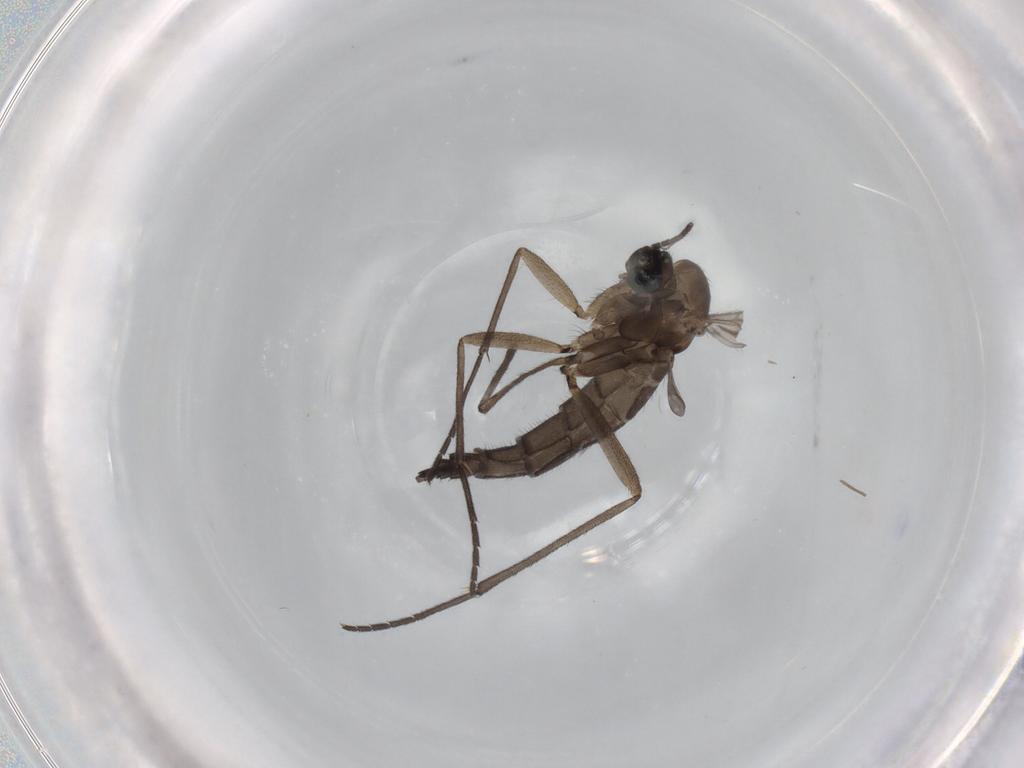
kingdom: Animalia
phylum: Arthropoda
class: Insecta
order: Diptera
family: Sciaridae
